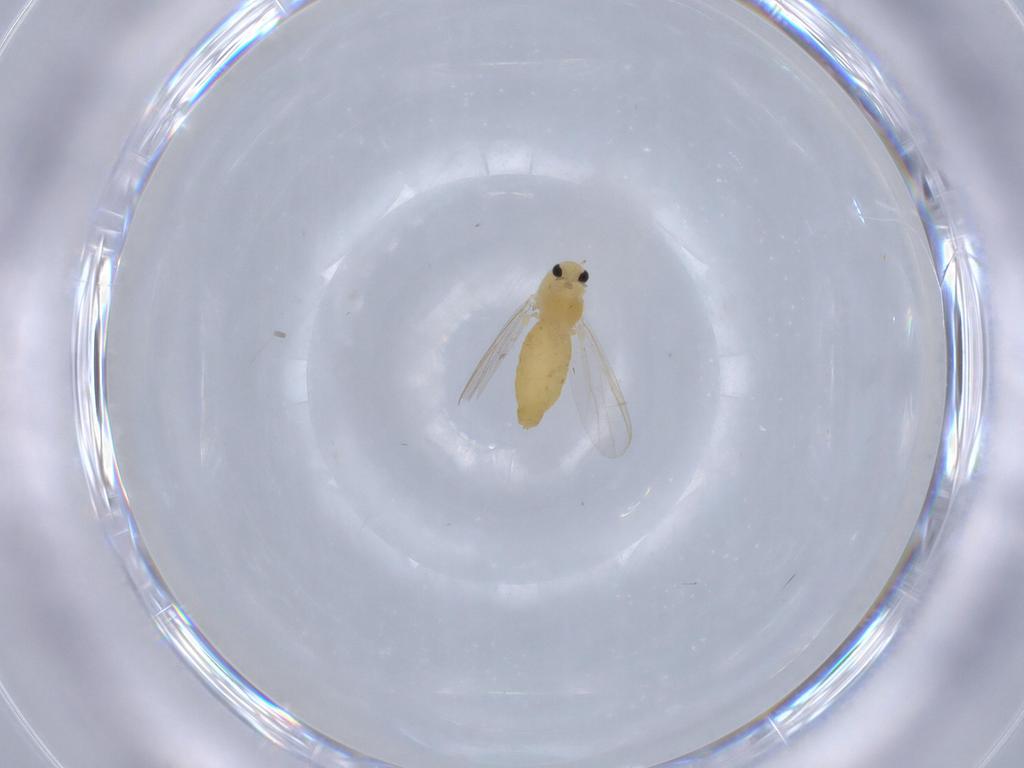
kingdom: Animalia
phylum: Arthropoda
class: Insecta
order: Diptera
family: Chironomidae
